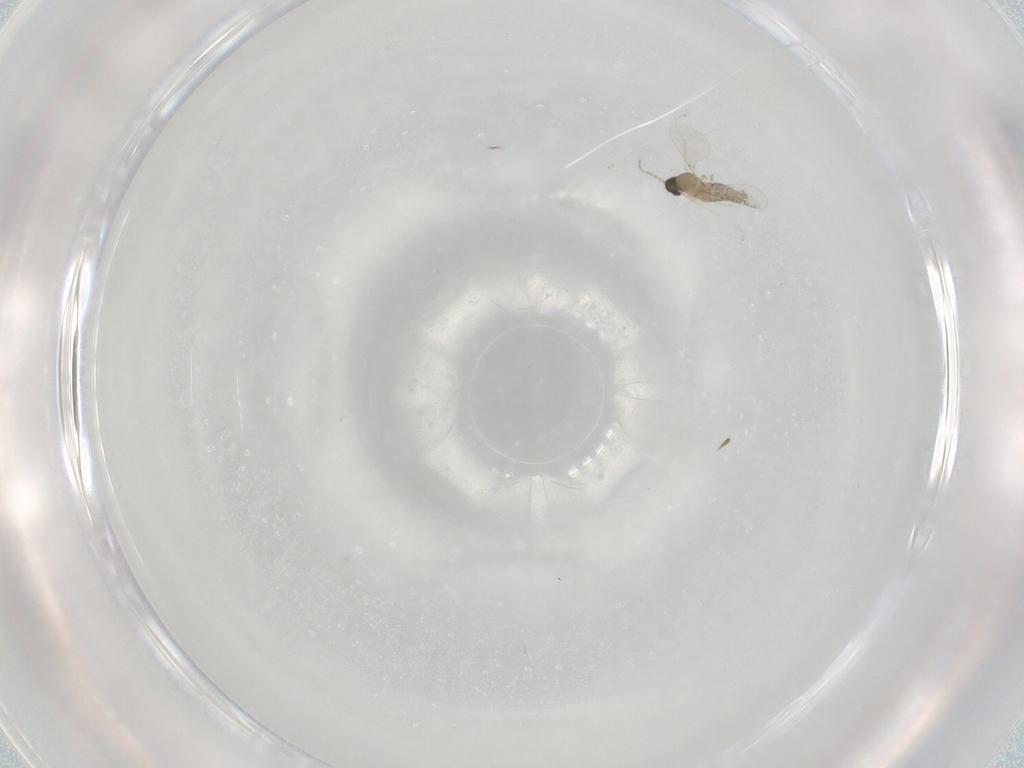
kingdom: Animalia
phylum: Arthropoda
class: Insecta
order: Diptera
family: Cecidomyiidae
